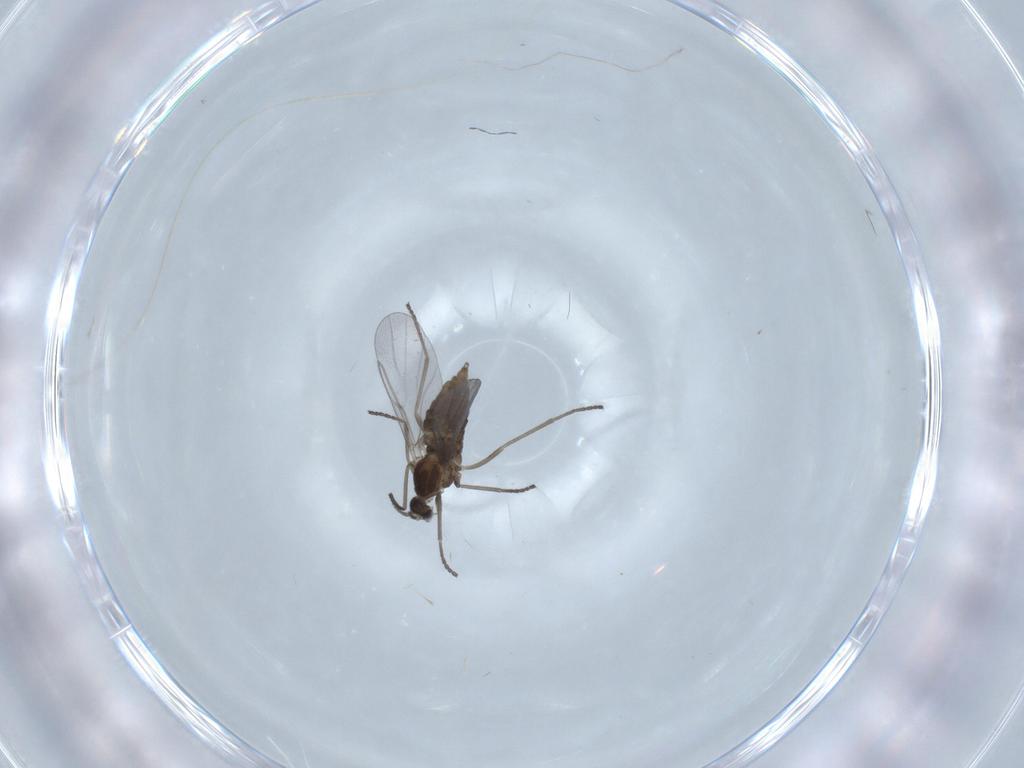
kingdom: Animalia
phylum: Arthropoda
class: Insecta
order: Diptera
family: Cecidomyiidae
